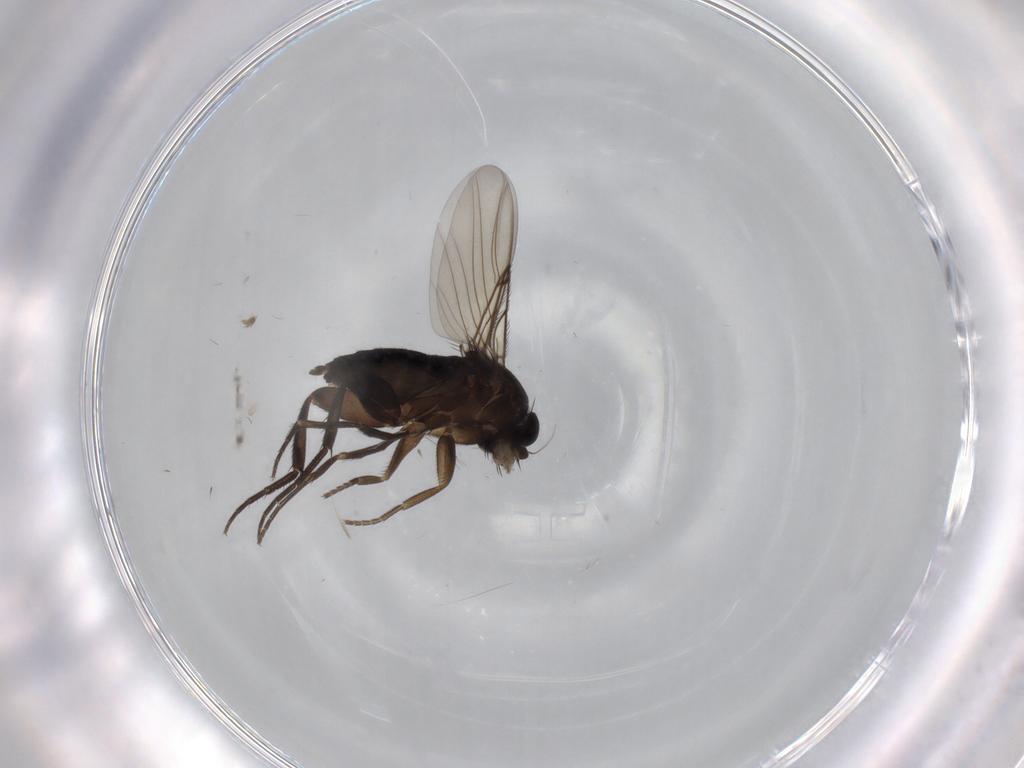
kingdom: Animalia
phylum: Arthropoda
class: Insecta
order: Diptera
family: Phoridae
